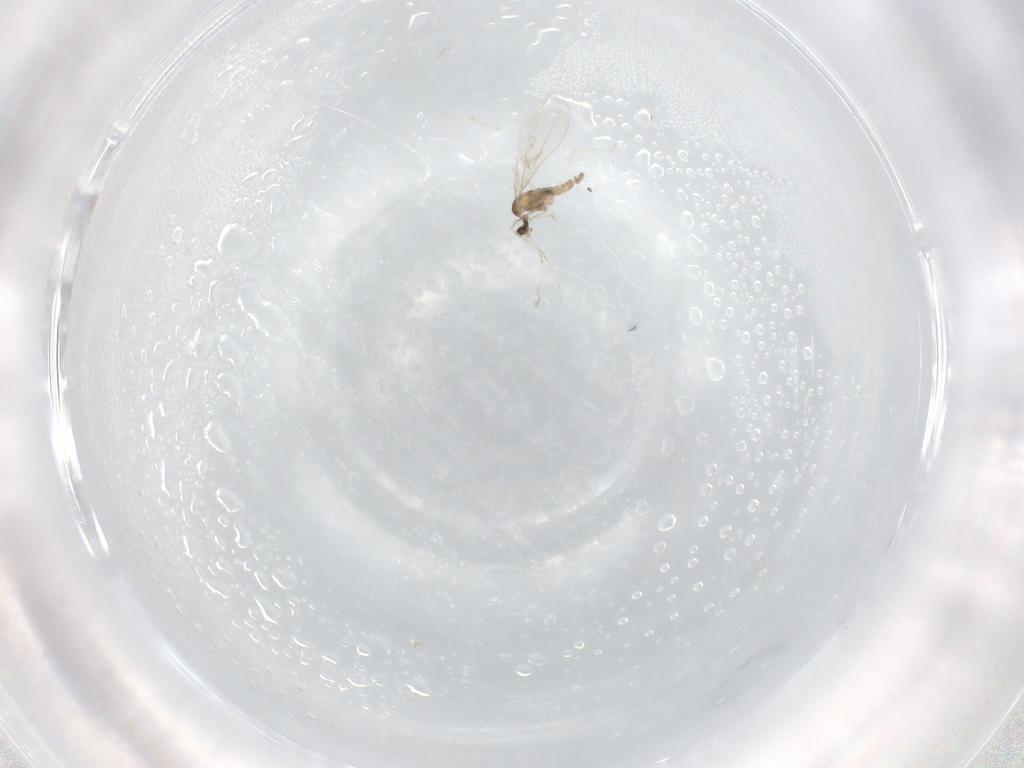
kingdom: Animalia
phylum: Arthropoda
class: Insecta
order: Diptera
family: Cecidomyiidae
